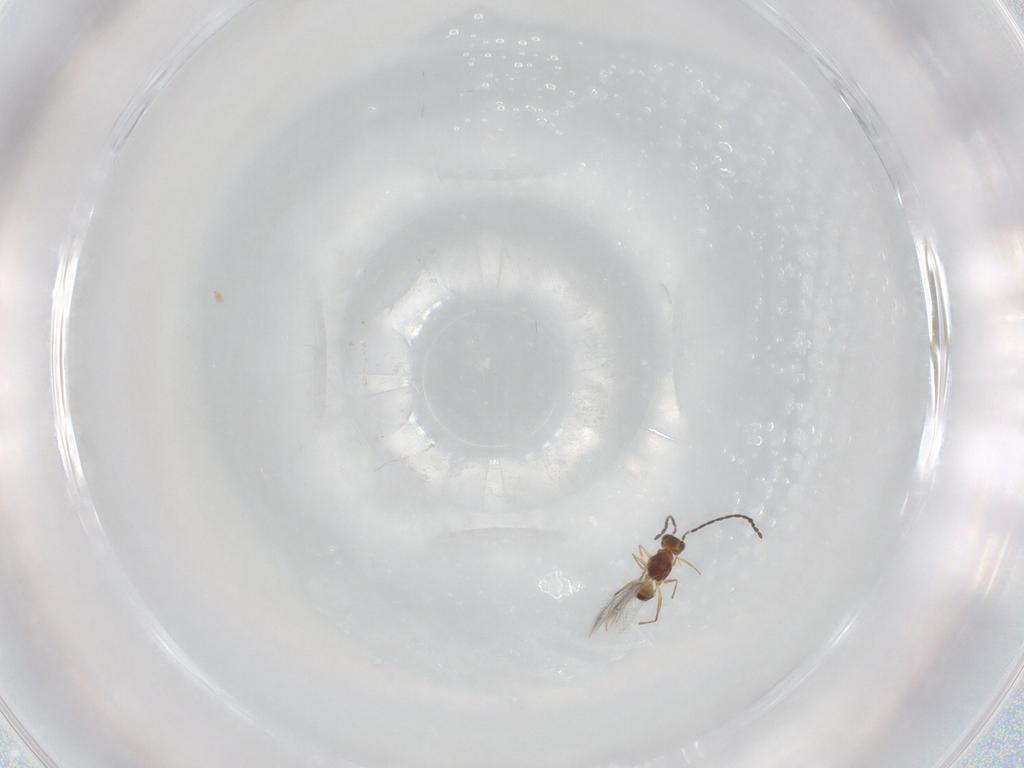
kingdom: Animalia
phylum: Arthropoda
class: Insecta
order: Hymenoptera
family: Mymaridae
